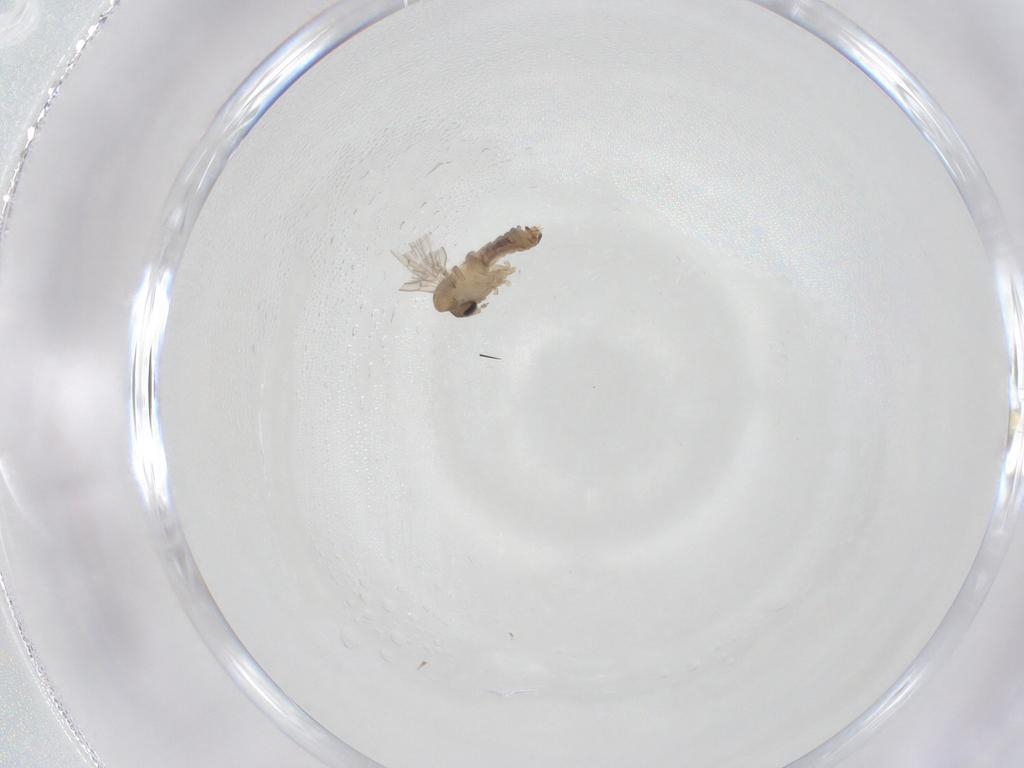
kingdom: Animalia
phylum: Arthropoda
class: Insecta
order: Diptera
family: Psychodidae
